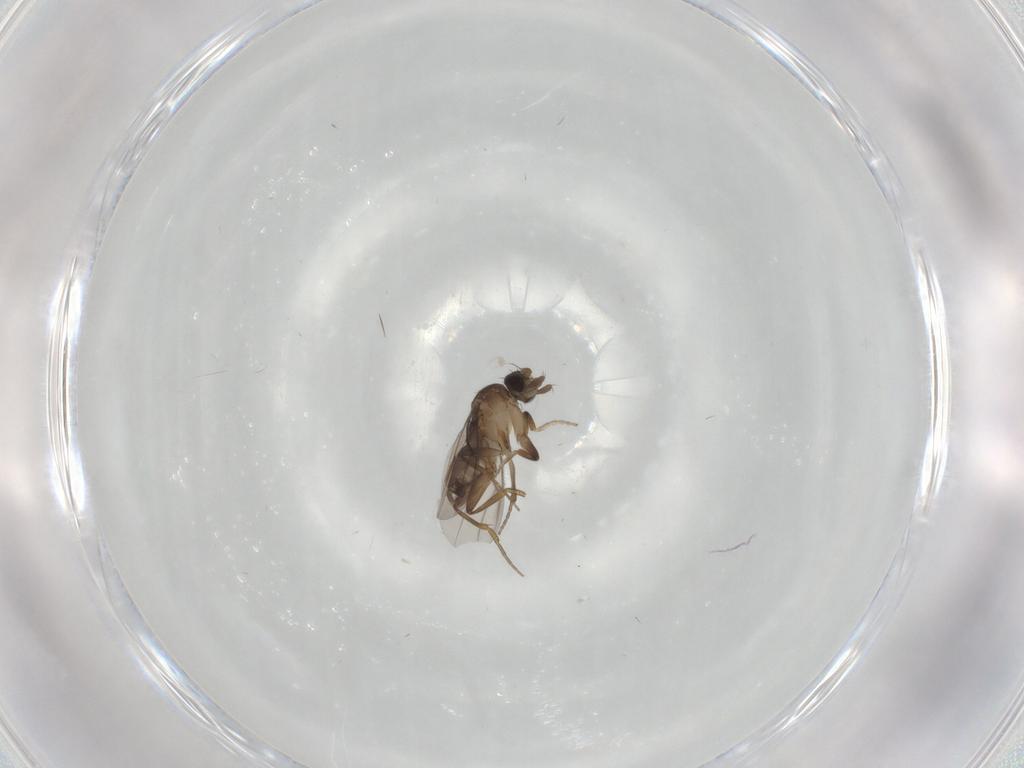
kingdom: Animalia
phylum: Arthropoda
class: Insecta
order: Diptera
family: Phoridae
